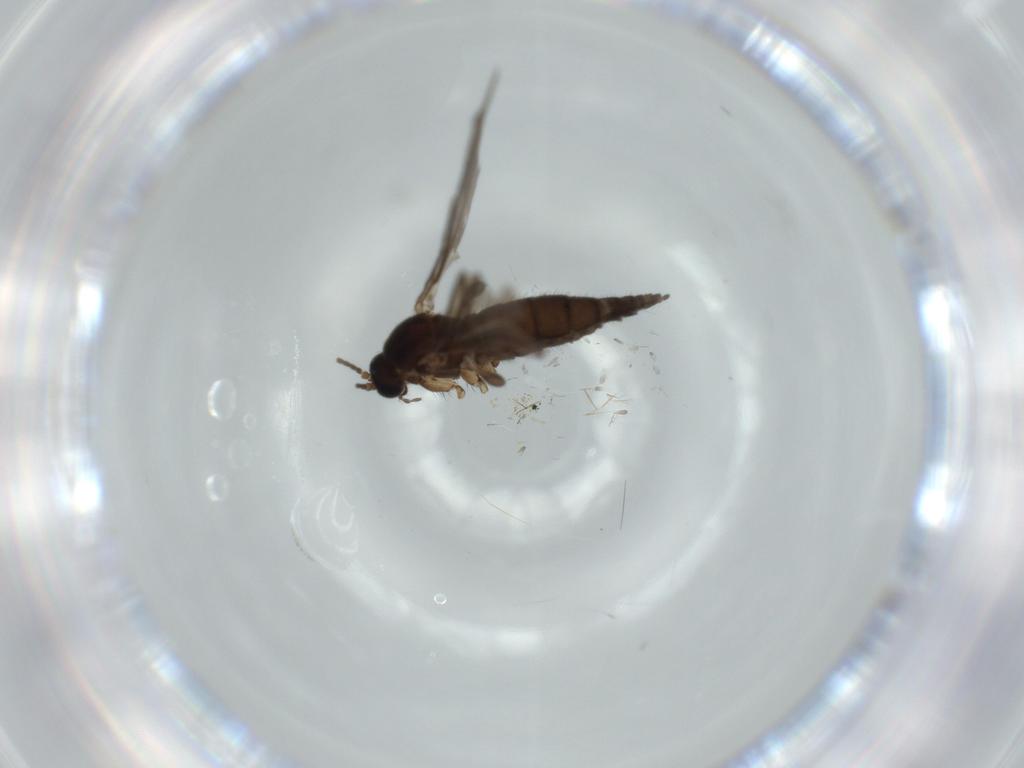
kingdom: Animalia
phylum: Arthropoda
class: Insecta
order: Diptera
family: Sciaridae
